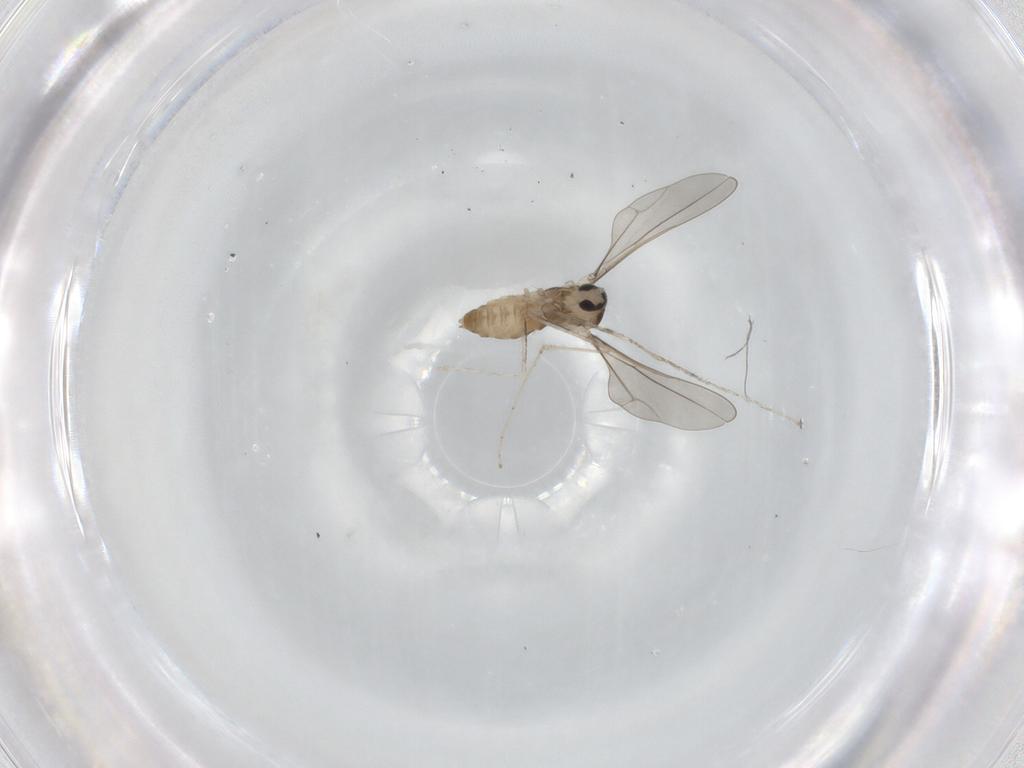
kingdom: Animalia
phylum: Arthropoda
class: Insecta
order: Diptera
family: Cecidomyiidae
